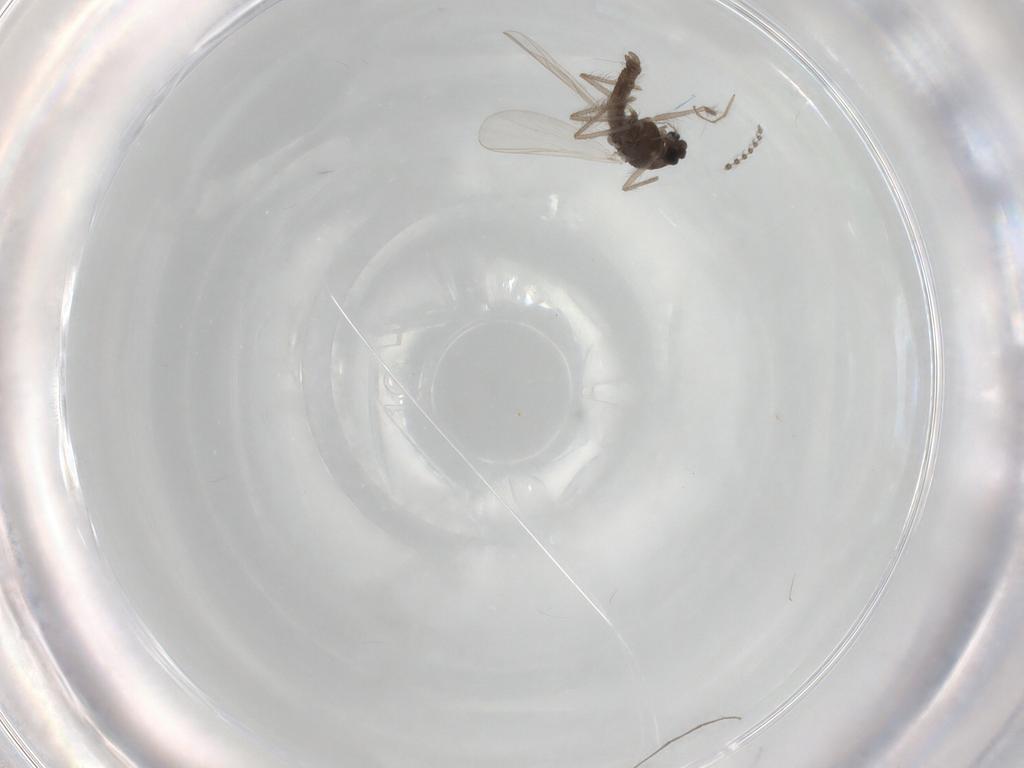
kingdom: Animalia
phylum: Arthropoda
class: Insecta
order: Diptera
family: Chironomidae
